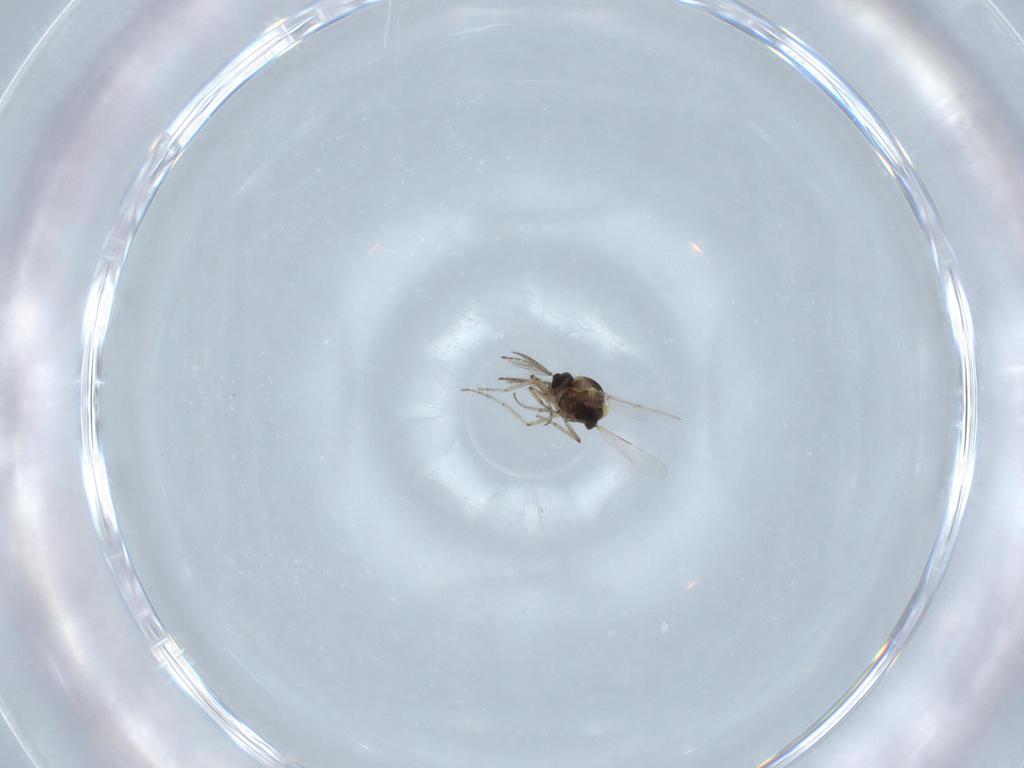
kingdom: Animalia
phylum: Arthropoda
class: Insecta
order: Diptera
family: Ceratopogonidae
